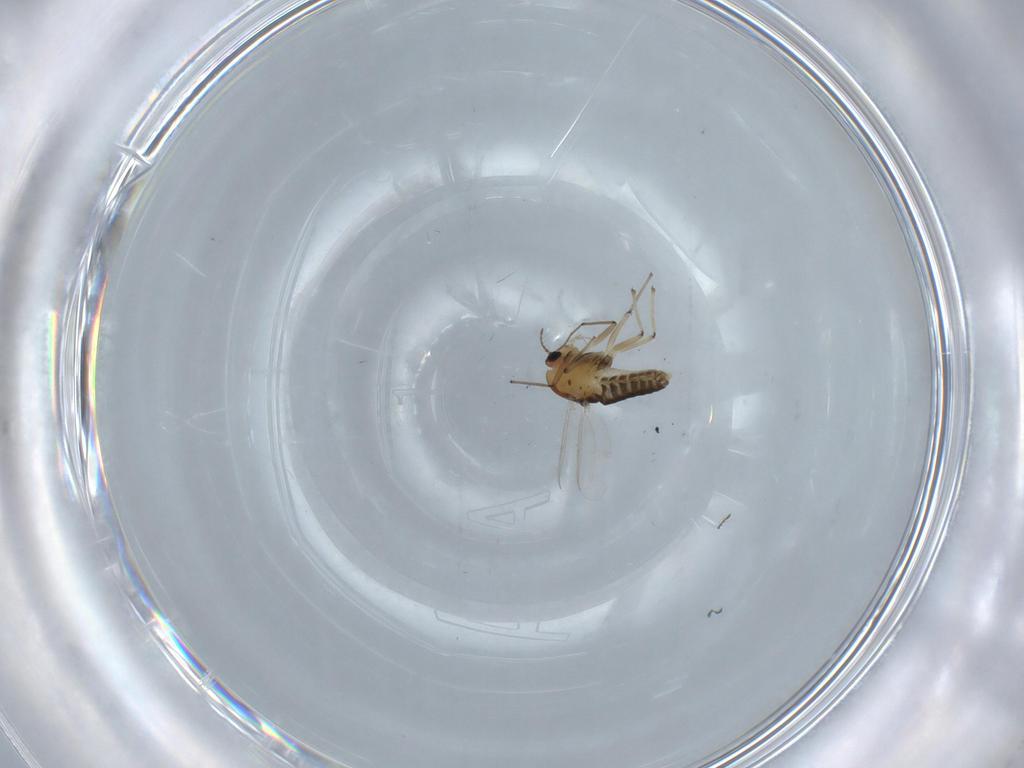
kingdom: Animalia
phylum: Arthropoda
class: Insecta
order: Diptera
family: Chironomidae
